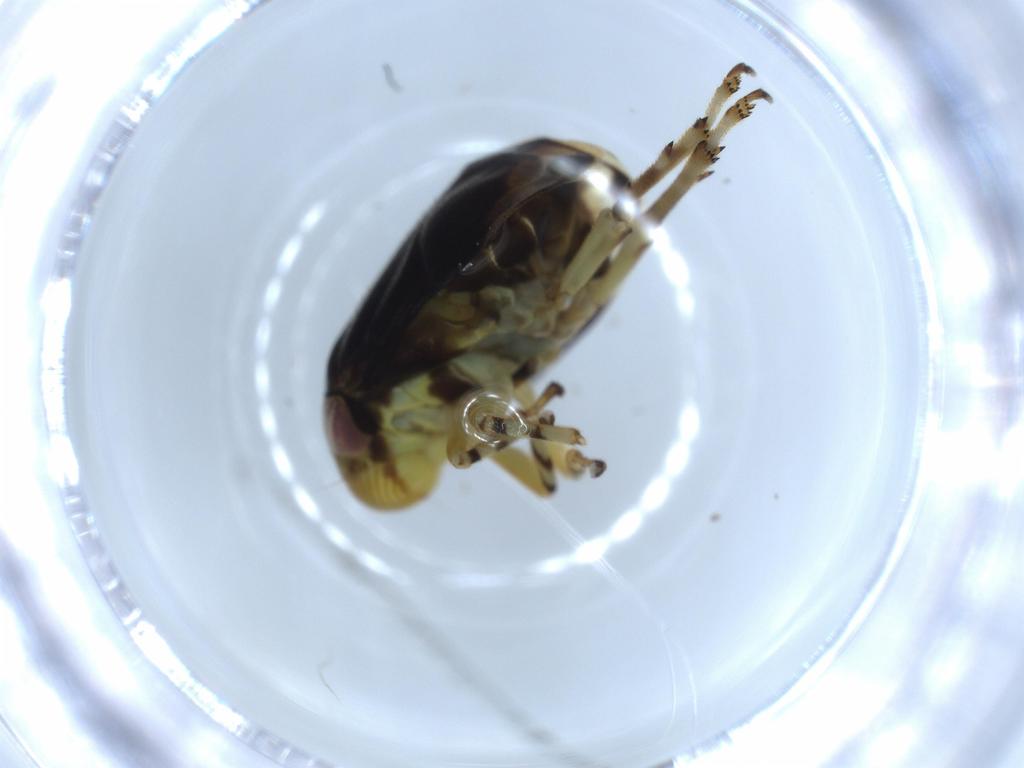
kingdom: Animalia
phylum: Arthropoda
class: Insecta
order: Hemiptera
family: Clastopteridae
